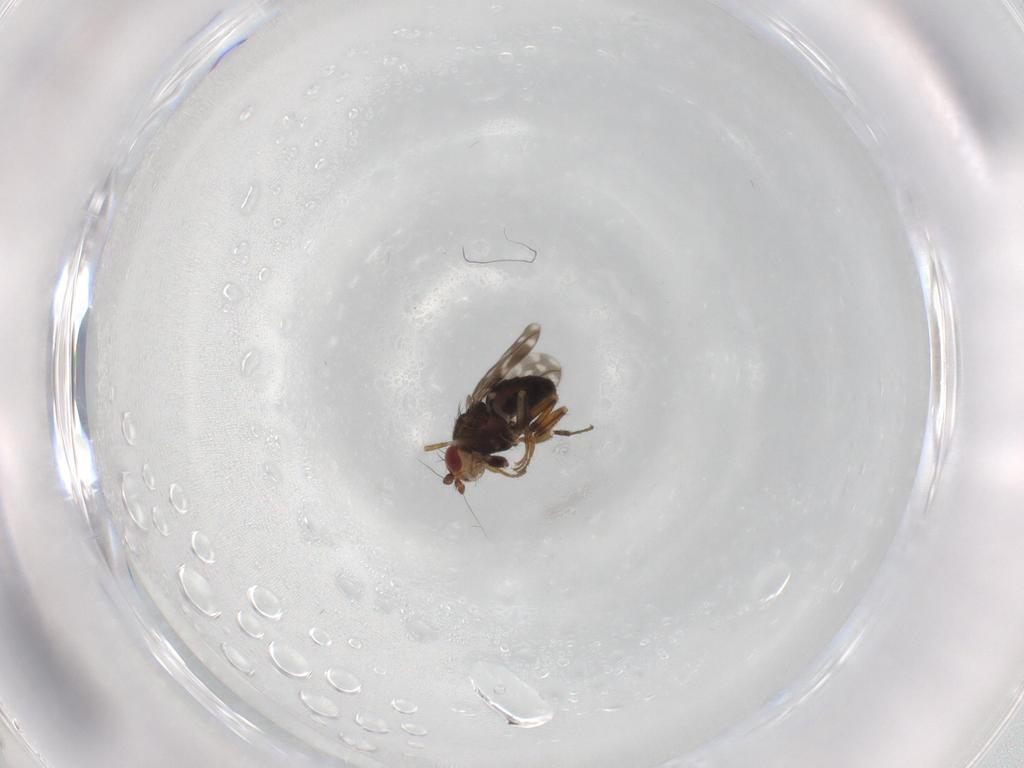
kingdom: Animalia
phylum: Arthropoda
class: Insecta
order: Diptera
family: Sphaeroceridae
